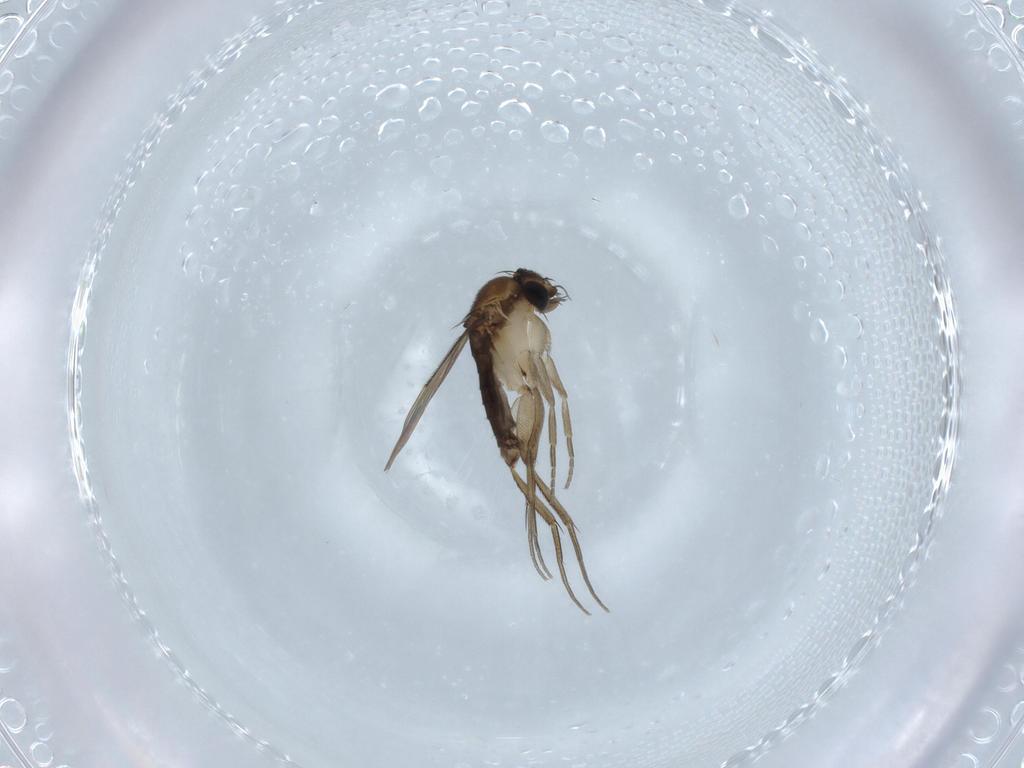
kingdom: Animalia
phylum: Arthropoda
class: Insecta
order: Diptera
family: Phoridae
